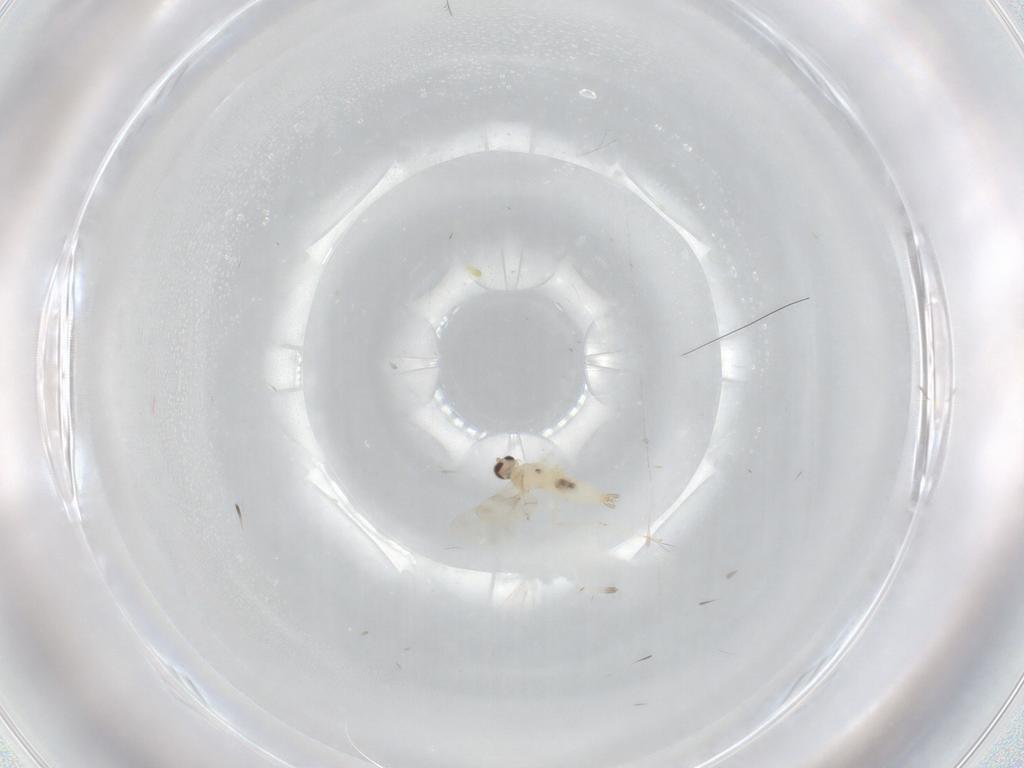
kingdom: Animalia
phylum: Arthropoda
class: Insecta
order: Diptera
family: Cecidomyiidae
